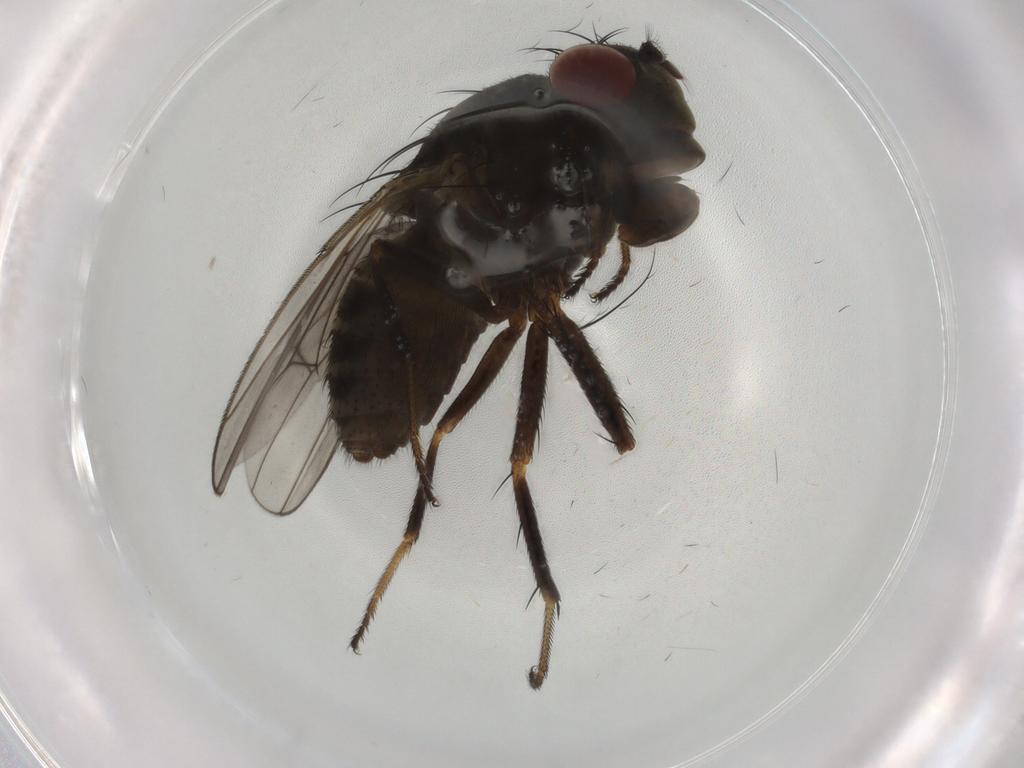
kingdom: Animalia
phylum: Arthropoda
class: Insecta
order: Diptera
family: Ephydridae
